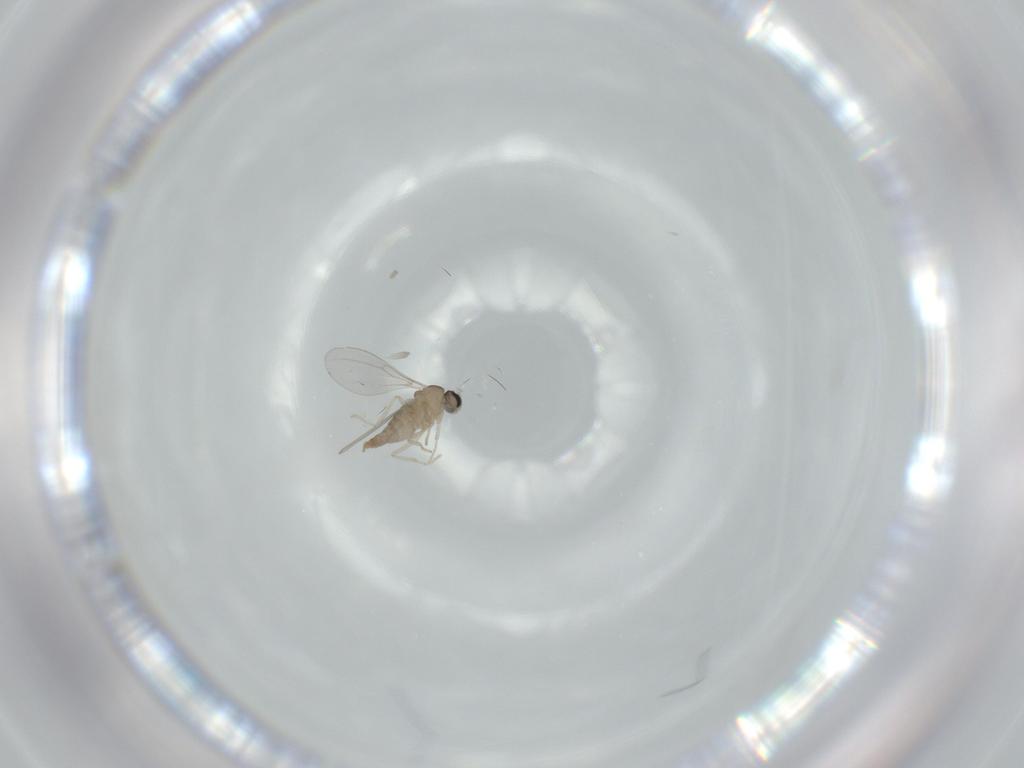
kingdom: Animalia
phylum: Arthropoda
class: Insecta
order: Diptera
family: Cecidomyiidae
